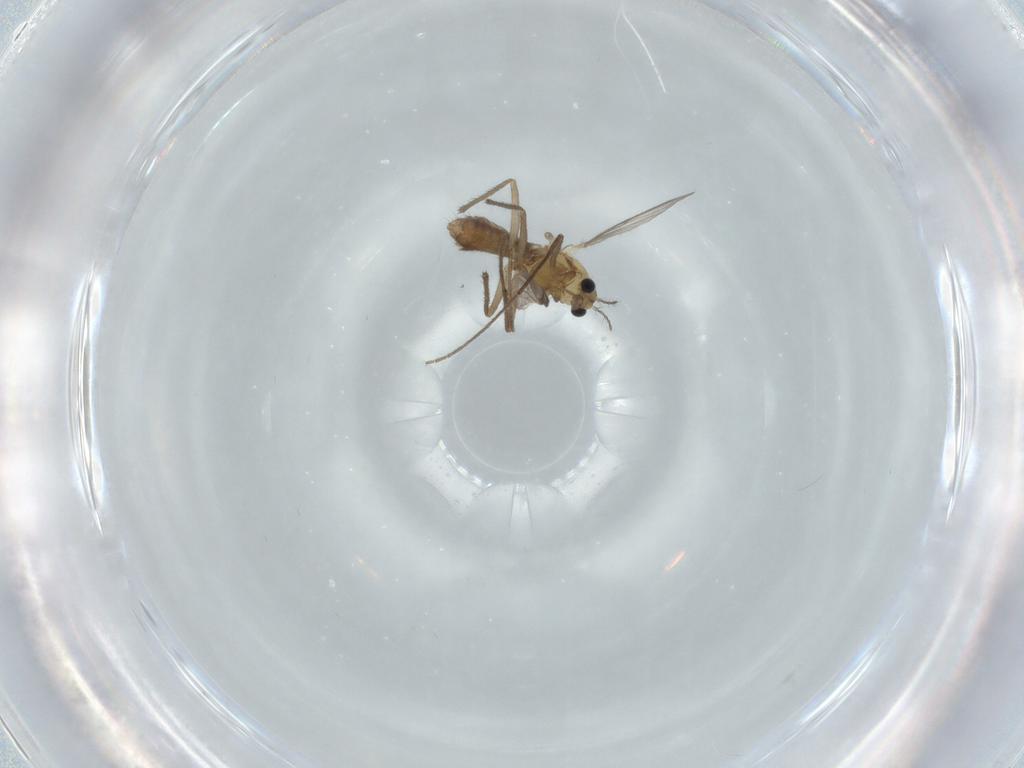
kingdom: Animalia
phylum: Arthropoda
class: Insecta
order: Diptera
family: Chironomidae
